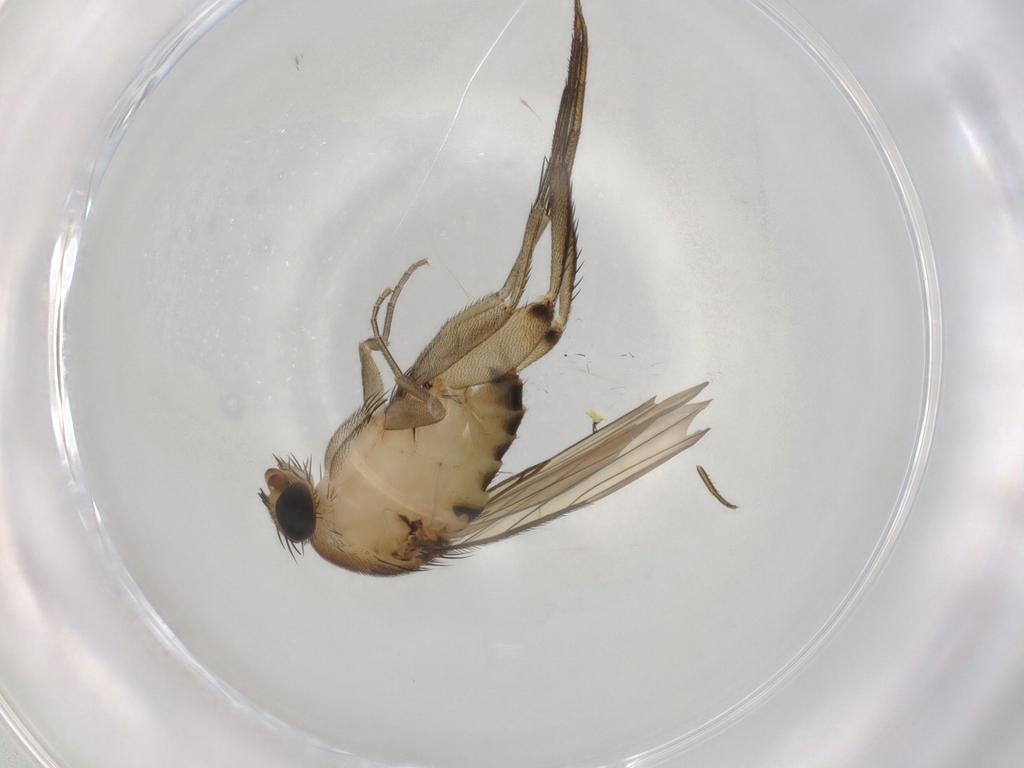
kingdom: Animalia
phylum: Arthropoda
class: Insecta
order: Diptera
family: Phoridae
